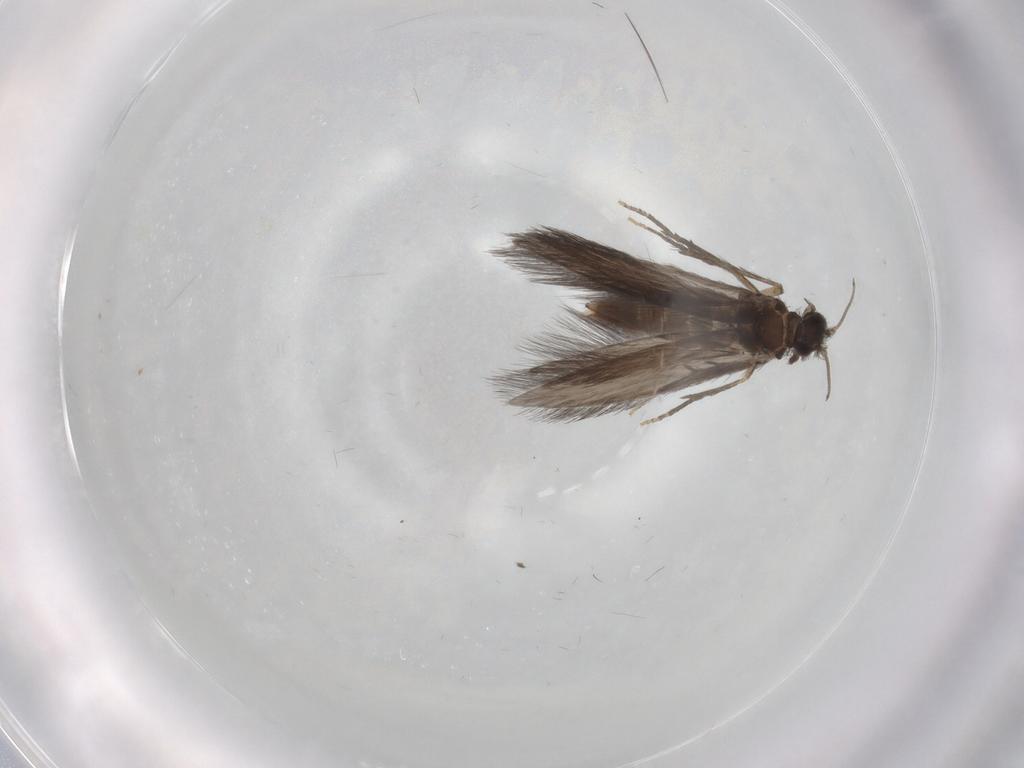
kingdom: Animalia
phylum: Arthropoda
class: Insecta
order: Trichoptera
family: Hydroptilidae
